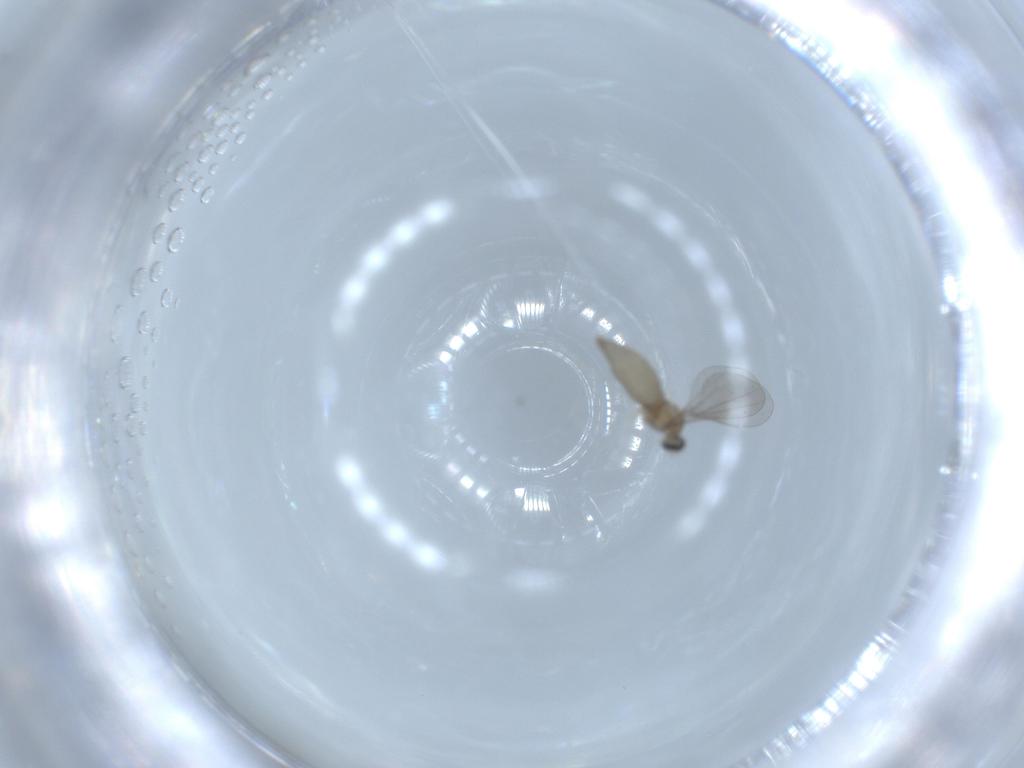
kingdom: Animalia
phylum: Arthropoda
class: Insecta
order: Diptera
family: Cecidomyiidae
